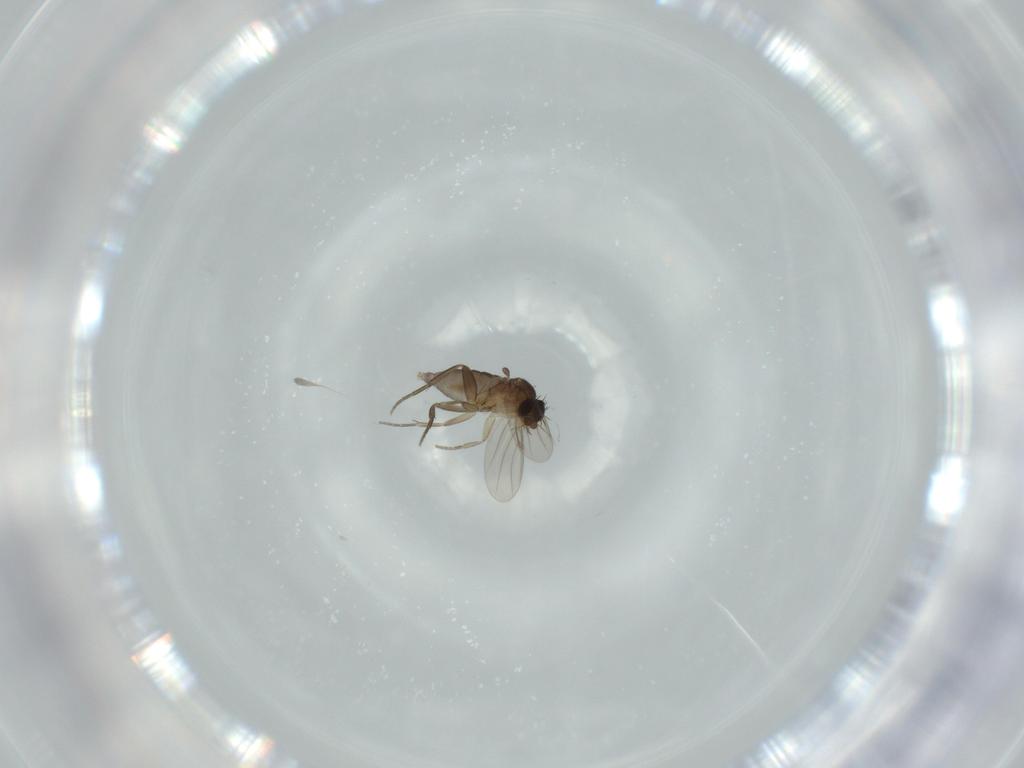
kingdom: Animalia
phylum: Arthropoda
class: Insecta
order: Diptera
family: Phoridae
